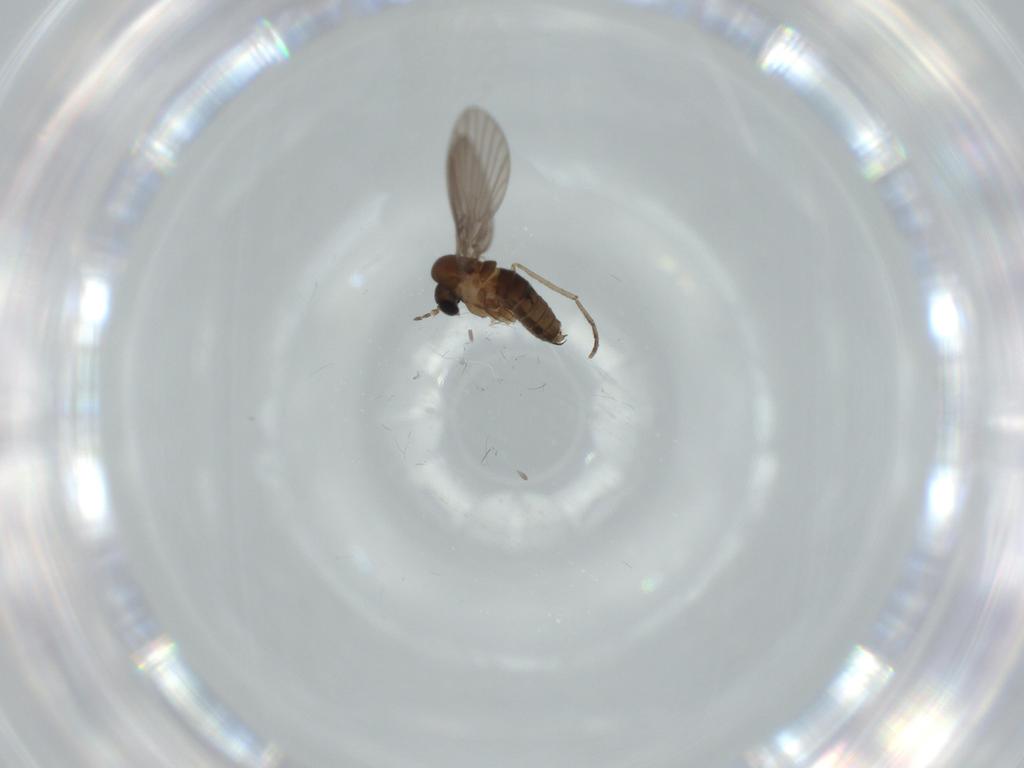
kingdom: Animalia
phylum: Arthropoda
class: Insecta
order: Diptera
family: Psychodidae
